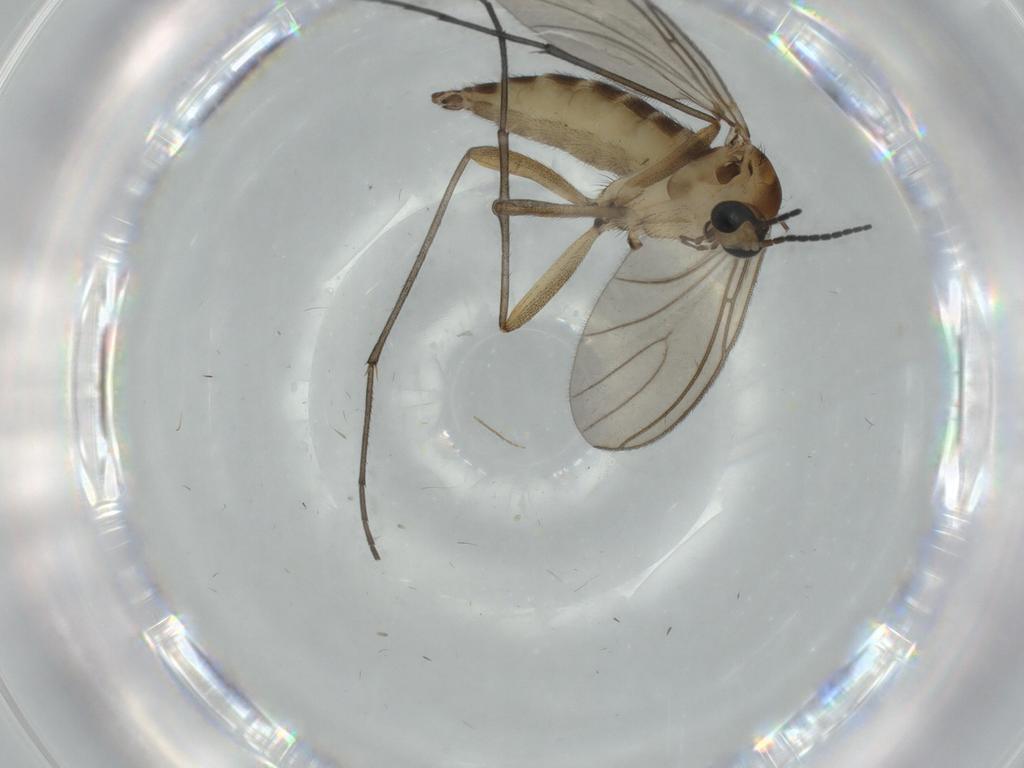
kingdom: Animalia
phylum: Arthropoda
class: Insecta
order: Diptera
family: Sciaridae
